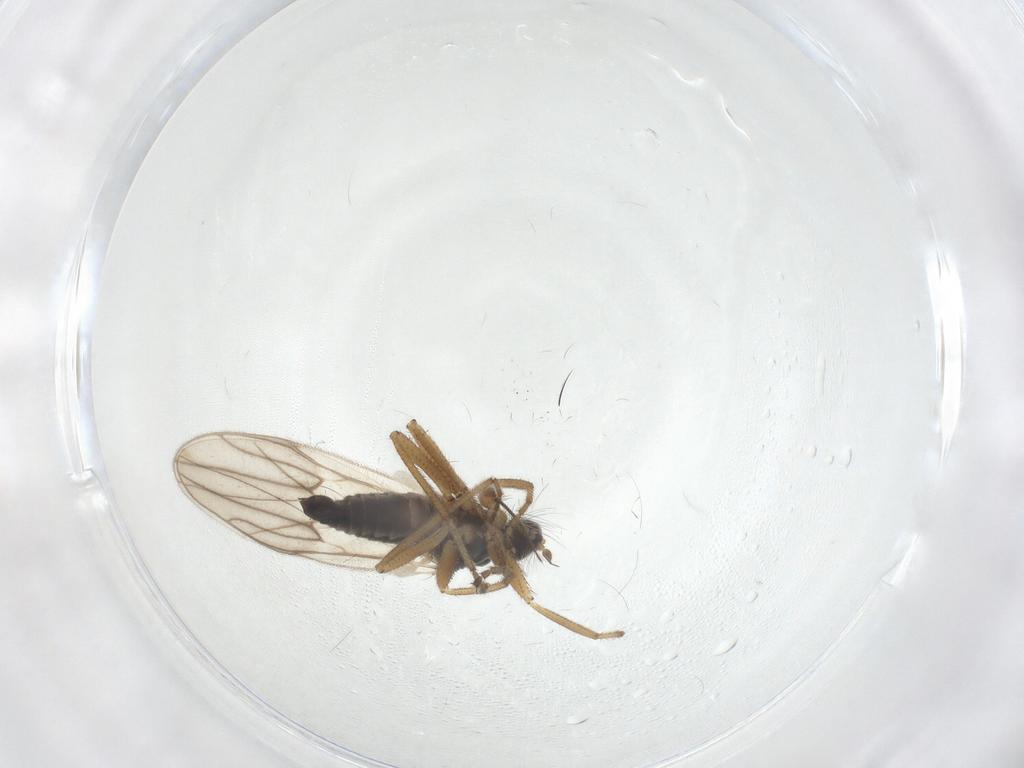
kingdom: Animalia
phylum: Arthropoda
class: Insecta
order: Diptera
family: Hybotidae
